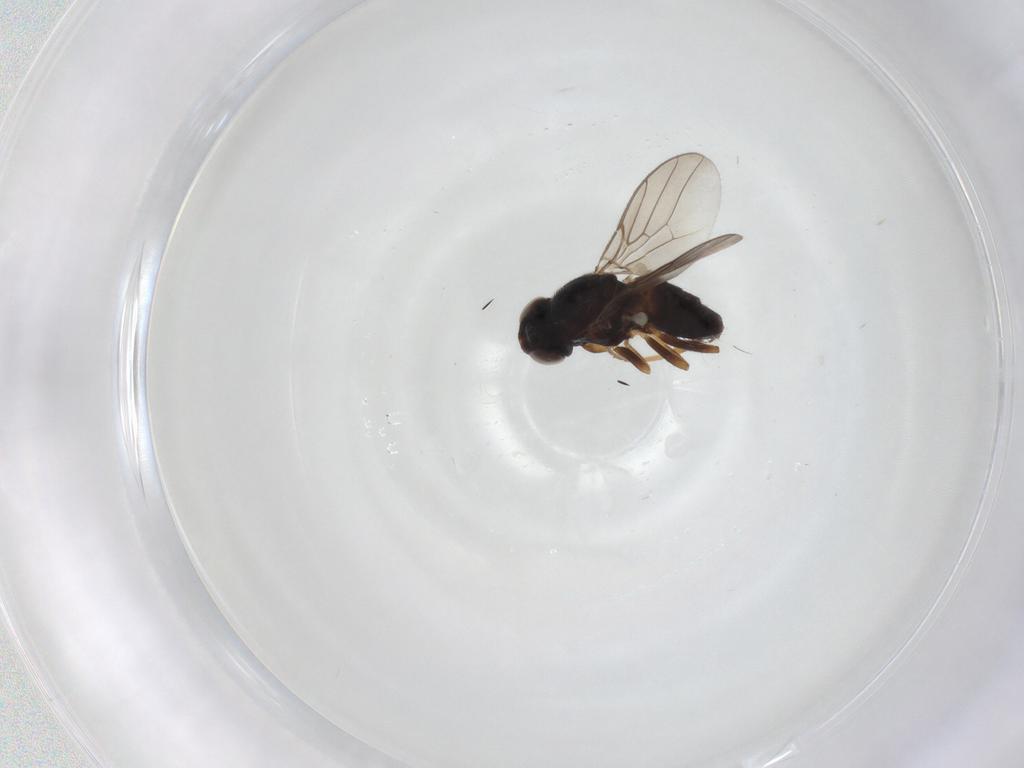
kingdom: Animalia
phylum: Arthropoda
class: Insecta
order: Diptera
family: Chloropidae
